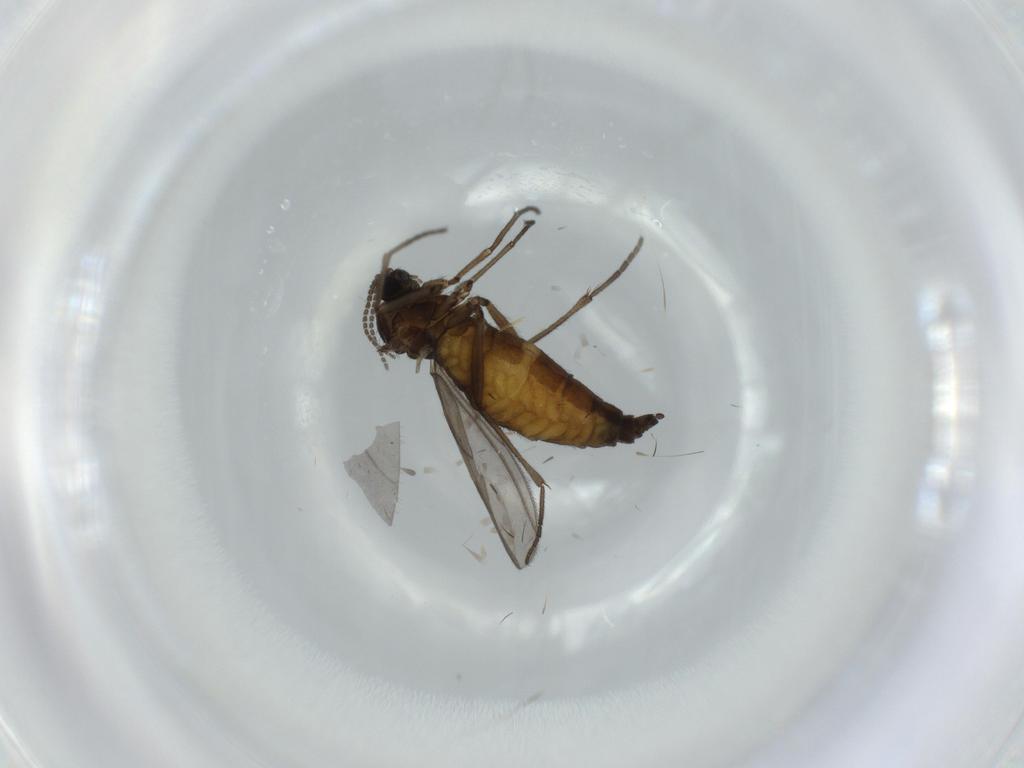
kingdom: Animalia
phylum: Arthropoda
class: Insecta
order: Diptera
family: Sciaridae
